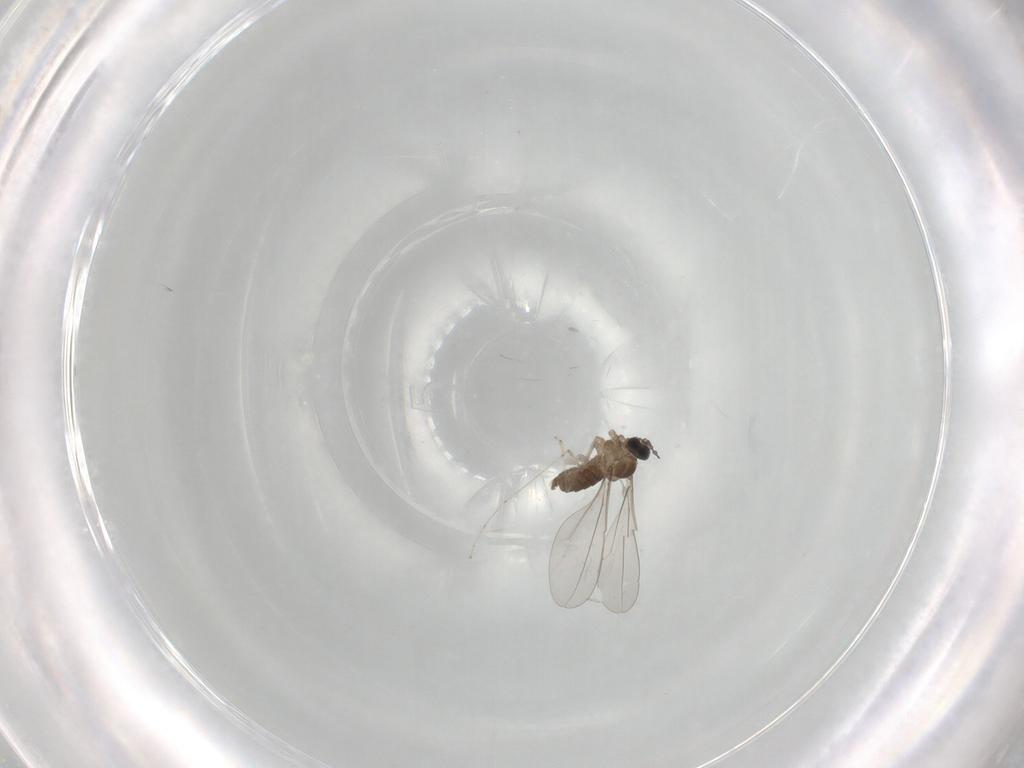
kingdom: Animalia
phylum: Arthropoda
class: Insecta
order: Diptera
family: Cecidomyiidae
